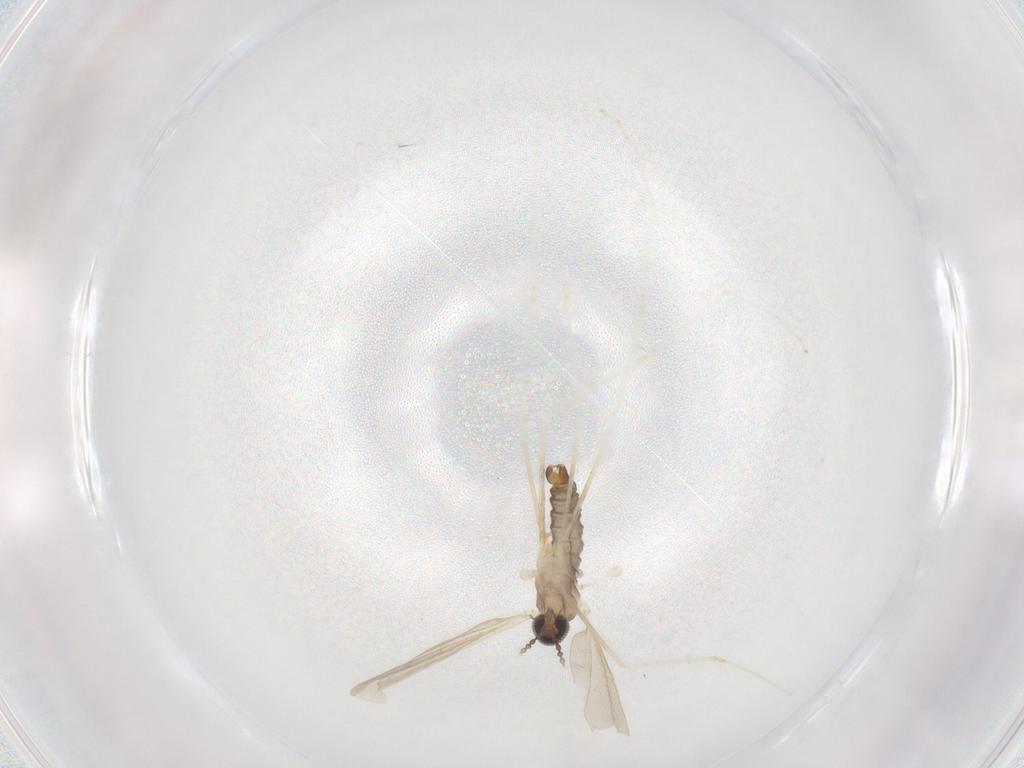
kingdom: Animalia
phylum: Arthropoda
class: Insecta
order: Diptera
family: Cecidomyiidae
